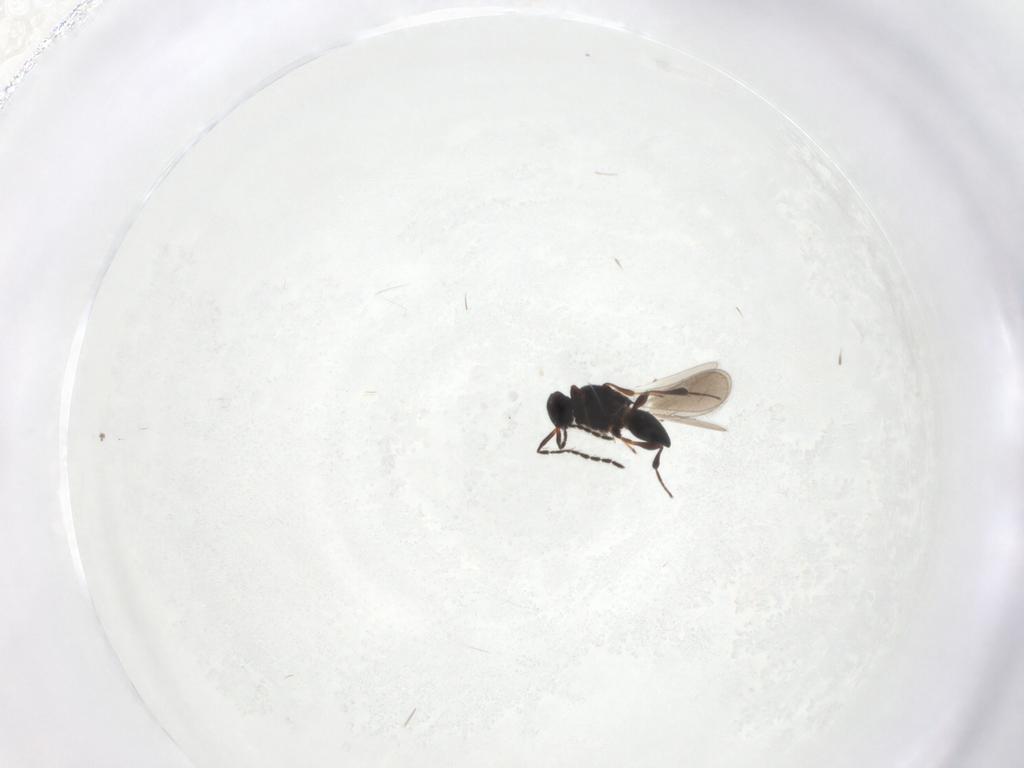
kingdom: Animalia
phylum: Arthropoda
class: Insecta
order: Hymenoptera
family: Platygastridae
